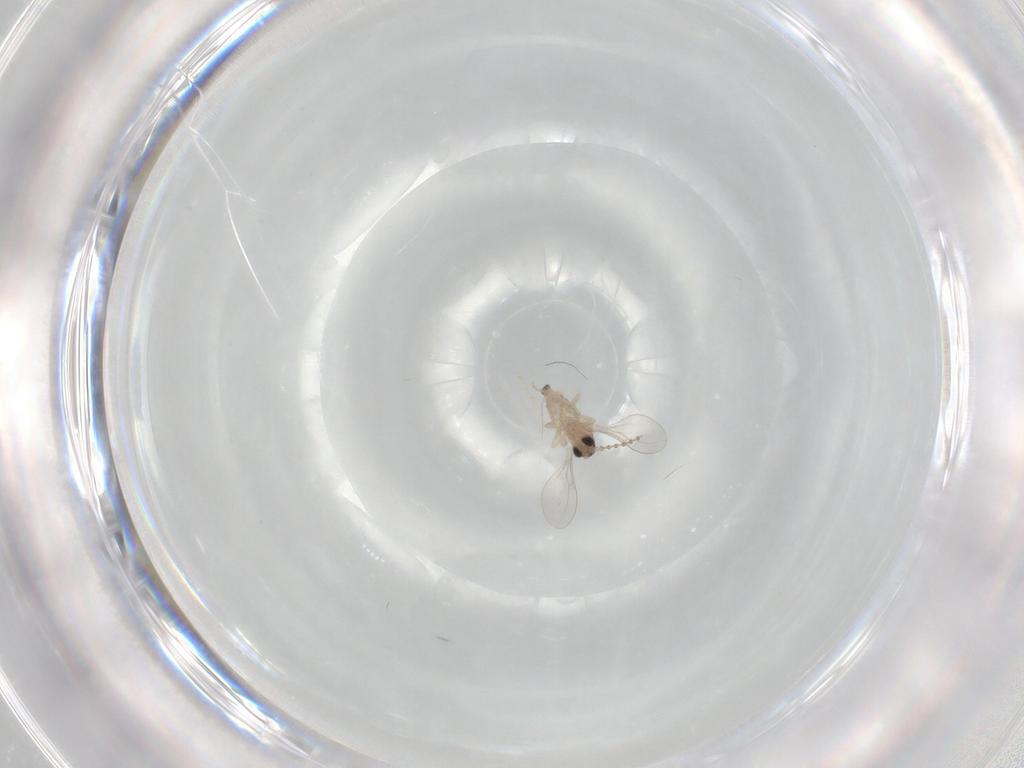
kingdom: Animalia
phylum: Arthropoda
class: Insecta
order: Diptera
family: Cecidomyiidae
